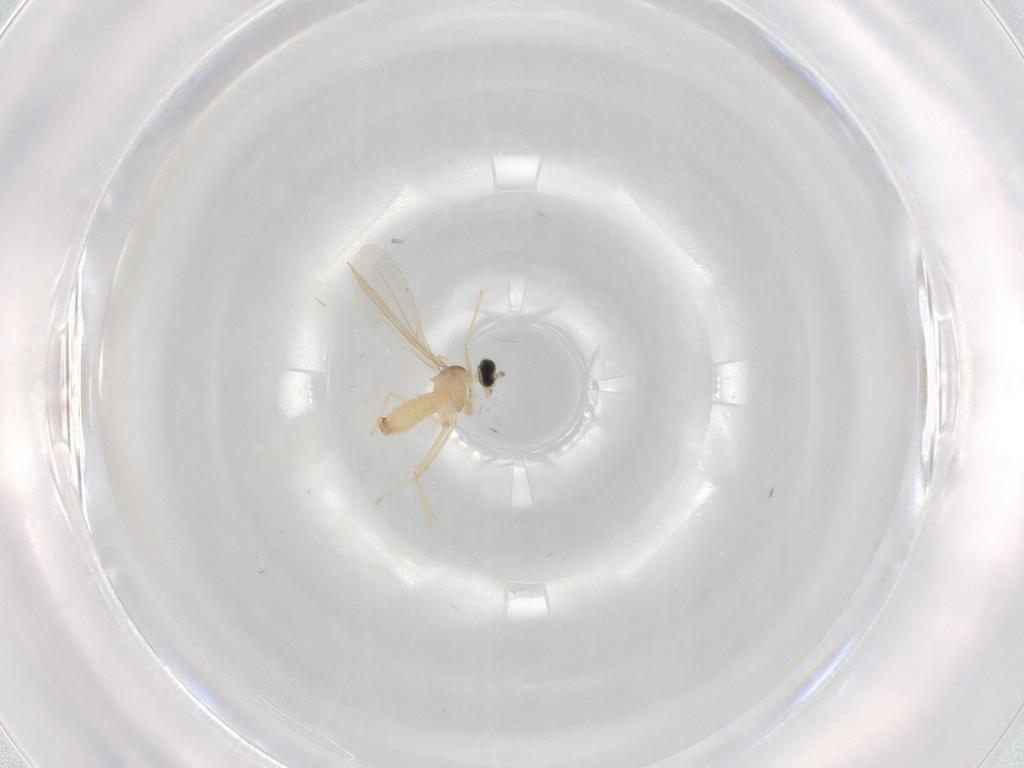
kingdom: Animalia
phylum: Arthropoda
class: Insecta
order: Diptera
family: Cecidomyiidae
